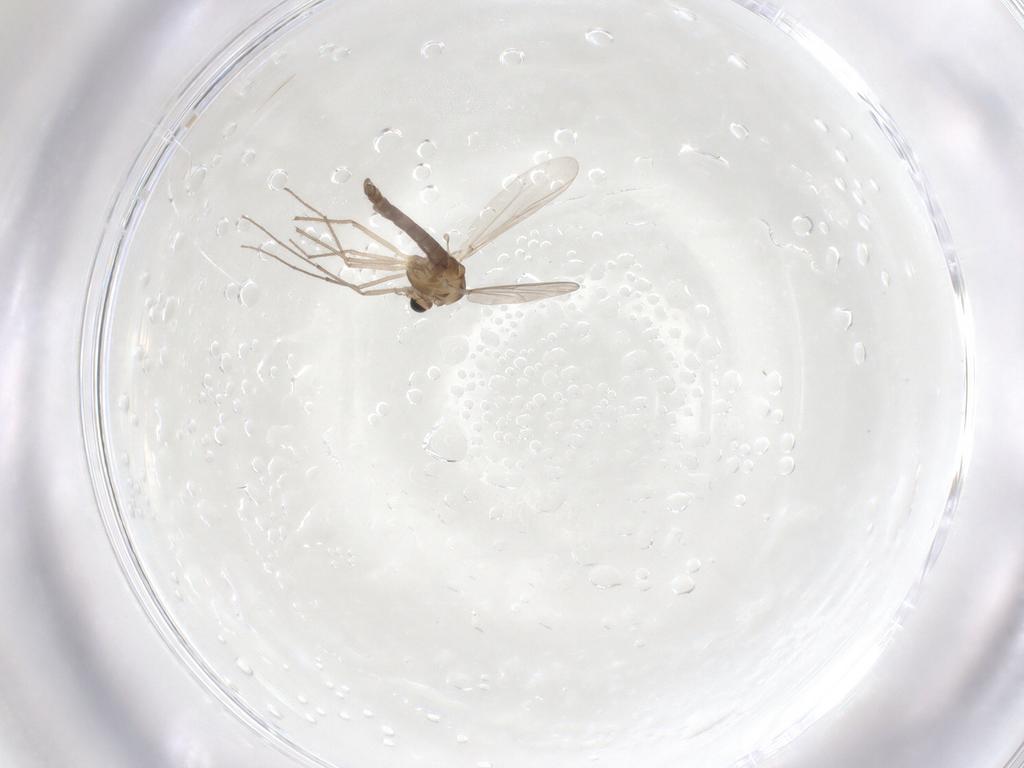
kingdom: Animalia
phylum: Arthropoda
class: Insecta
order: Diptera
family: Chironomidae
